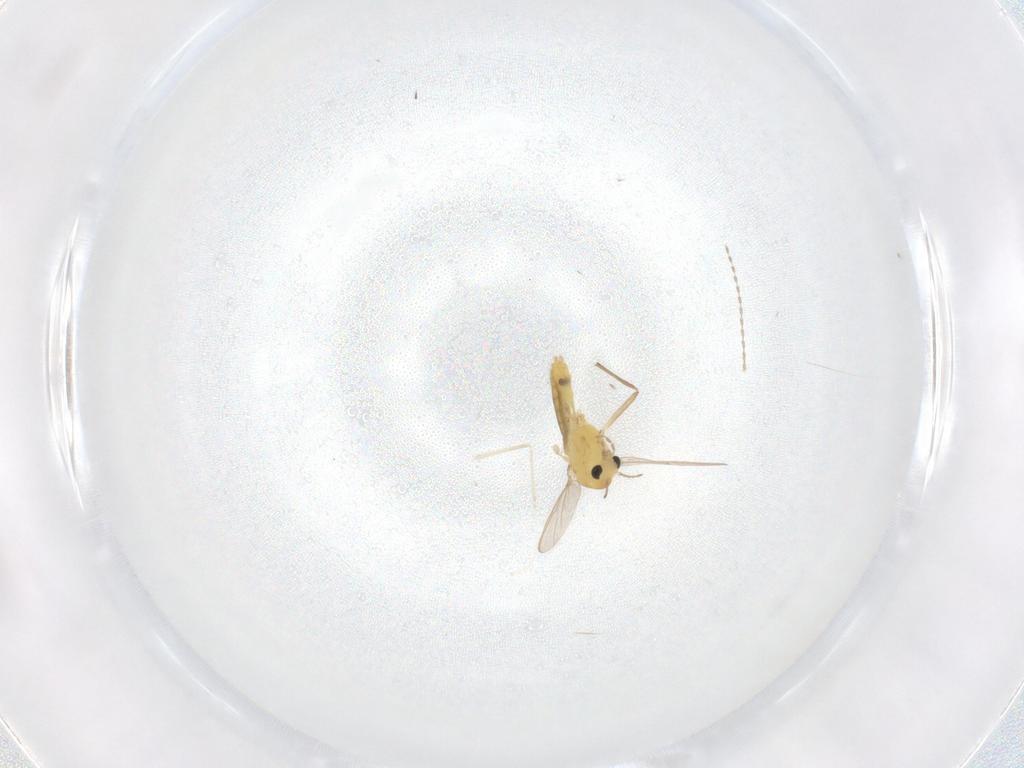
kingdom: Animalia
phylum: Arthropoda
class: Insecta
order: Diptera
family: Chironomidae
